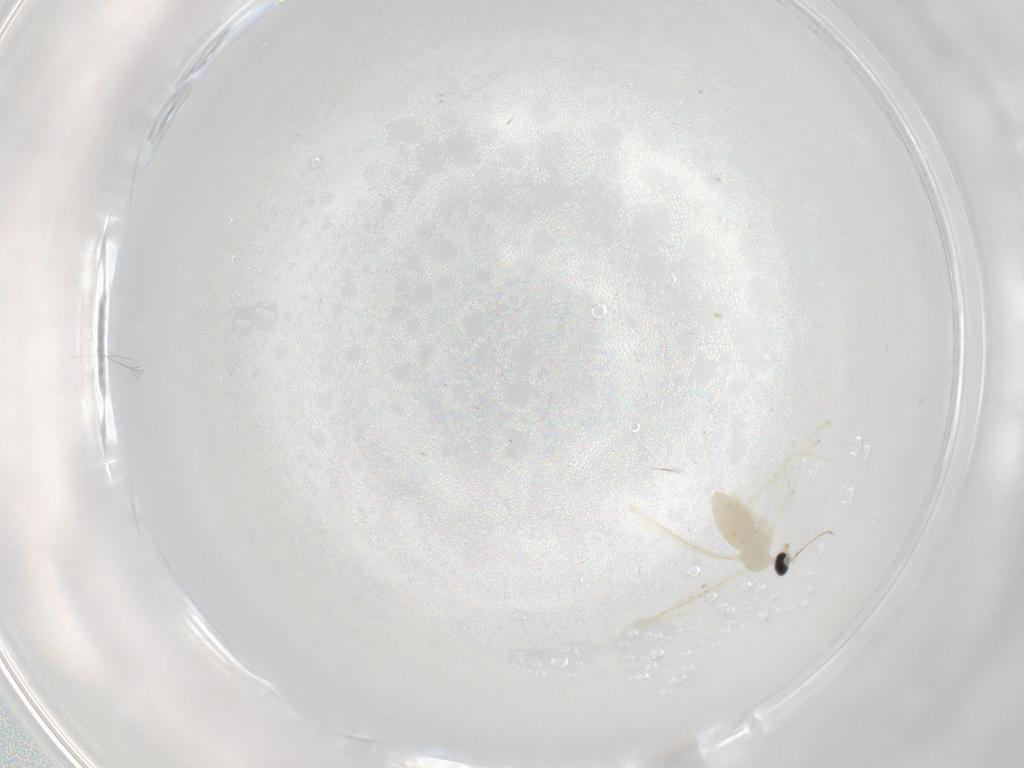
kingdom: Animalia
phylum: Arthropoda
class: Insecta
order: Diptera
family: Cecidomyiidae
